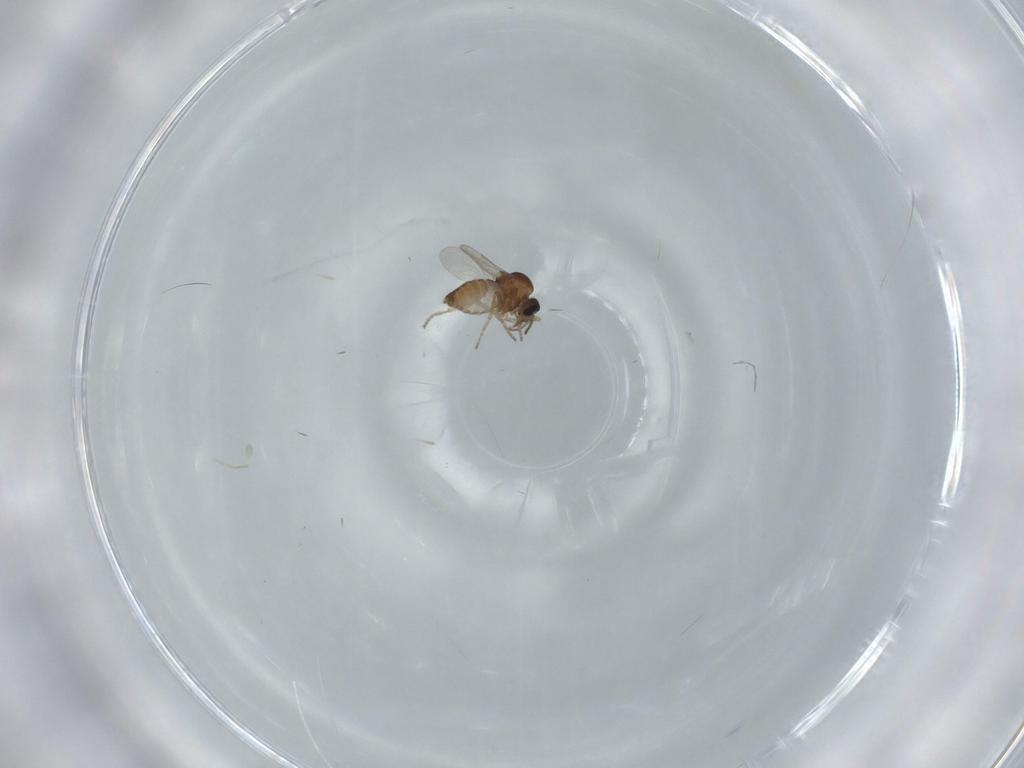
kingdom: Animalia
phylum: Arthropoda
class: Insecta
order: Diptera
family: Ceratopogonidae
